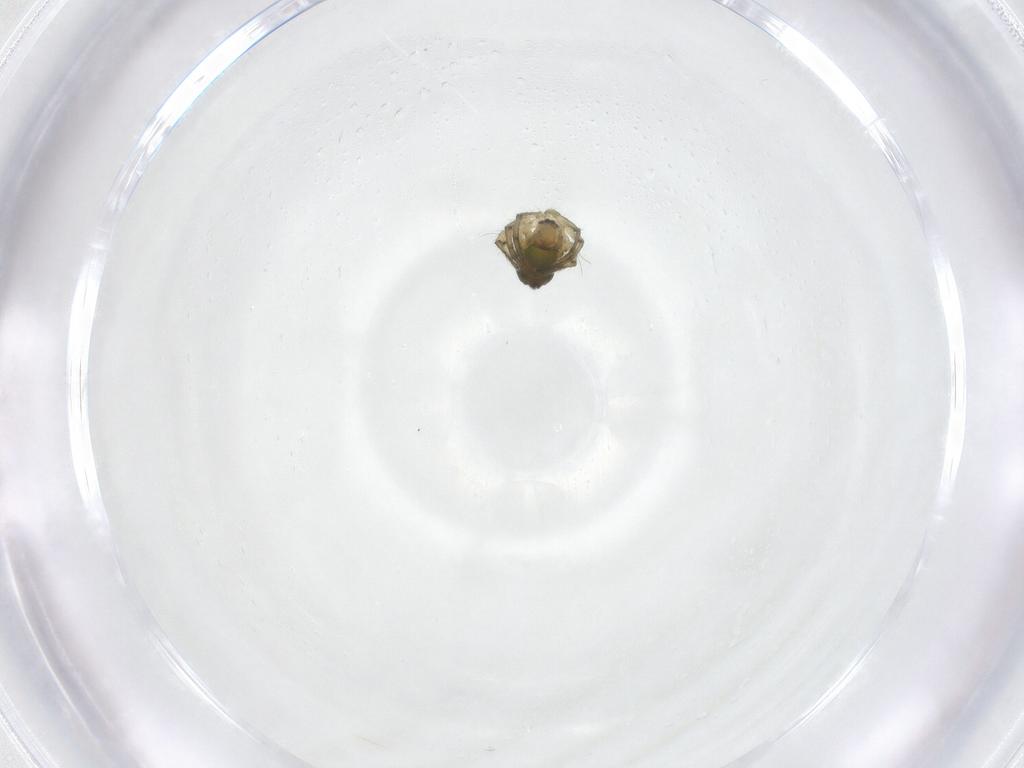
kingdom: Animalia
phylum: Arthropoda
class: Arachnida
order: Araneae
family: Tetragnathidae
